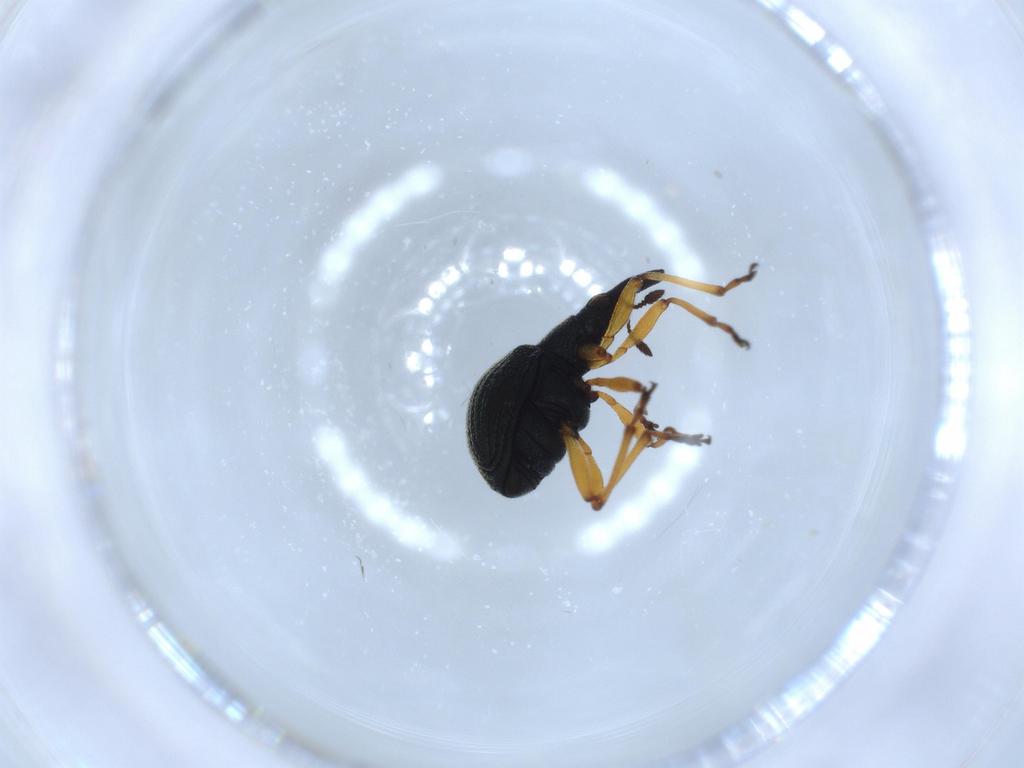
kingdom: Animalia
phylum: Arthropoda
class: Insecta
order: Coleoptera
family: Brentidae
